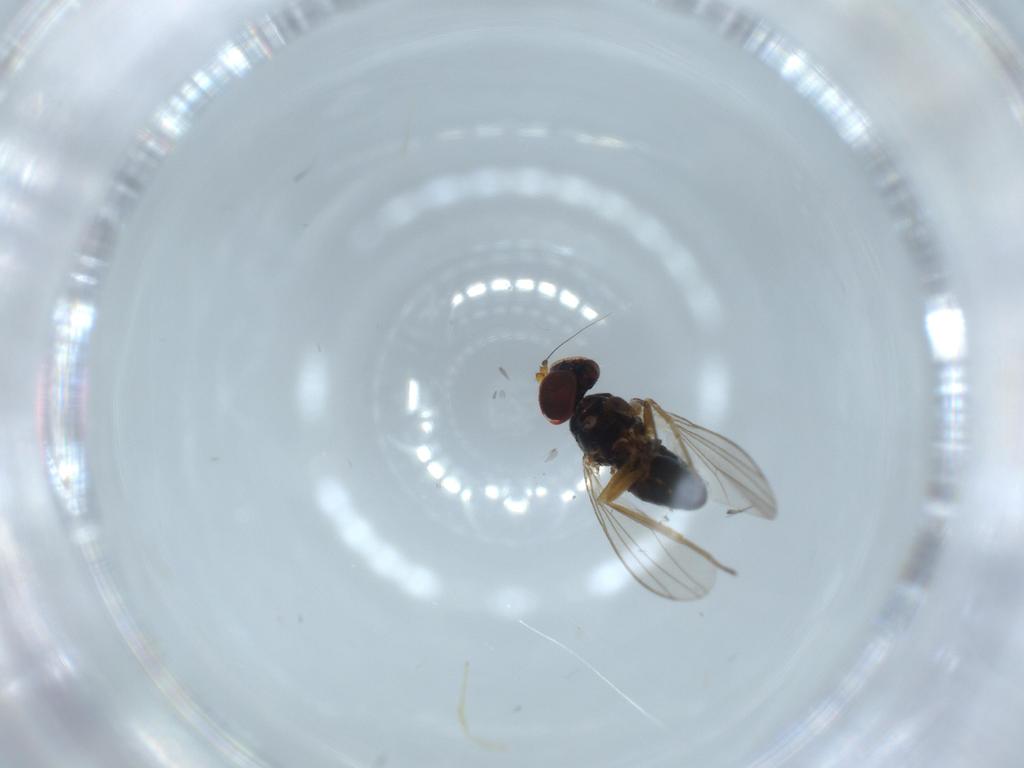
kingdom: Animalia
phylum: Arthropoda
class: Insecta
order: Diptera
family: Dolichopodidae
